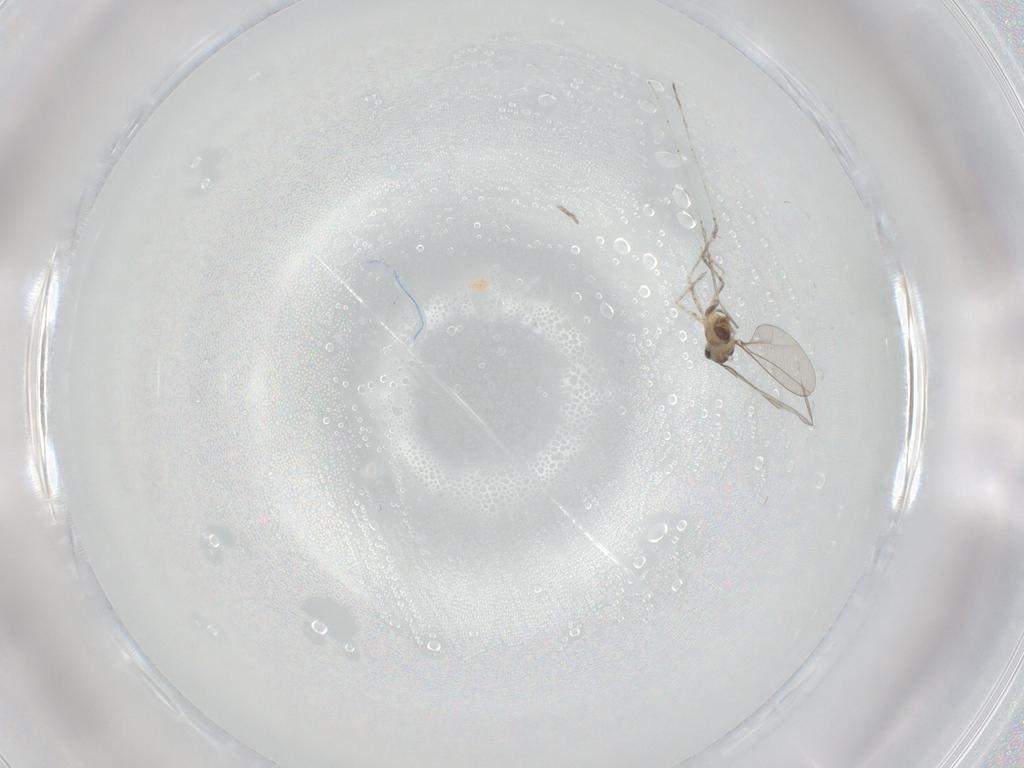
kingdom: Animalia
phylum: Arthropoda
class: Insecta
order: Diptera
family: Cecidomyiidae
